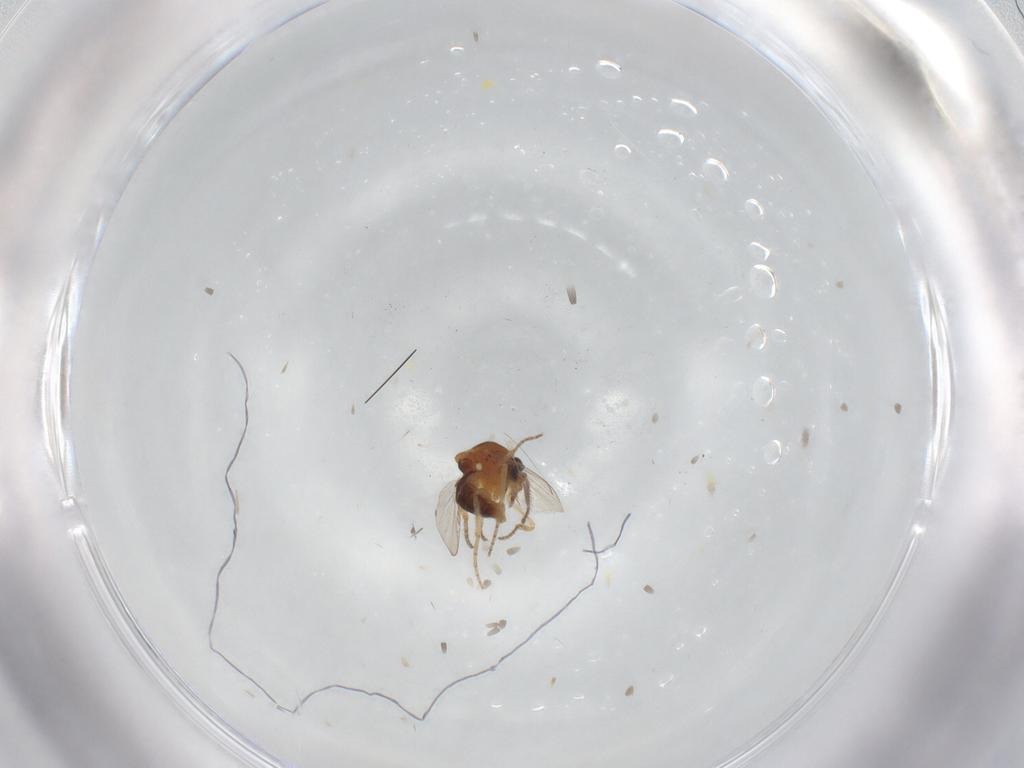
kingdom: Animalia
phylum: Arthropoda
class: Insecta
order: Diptera
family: Ceratopogonidae
